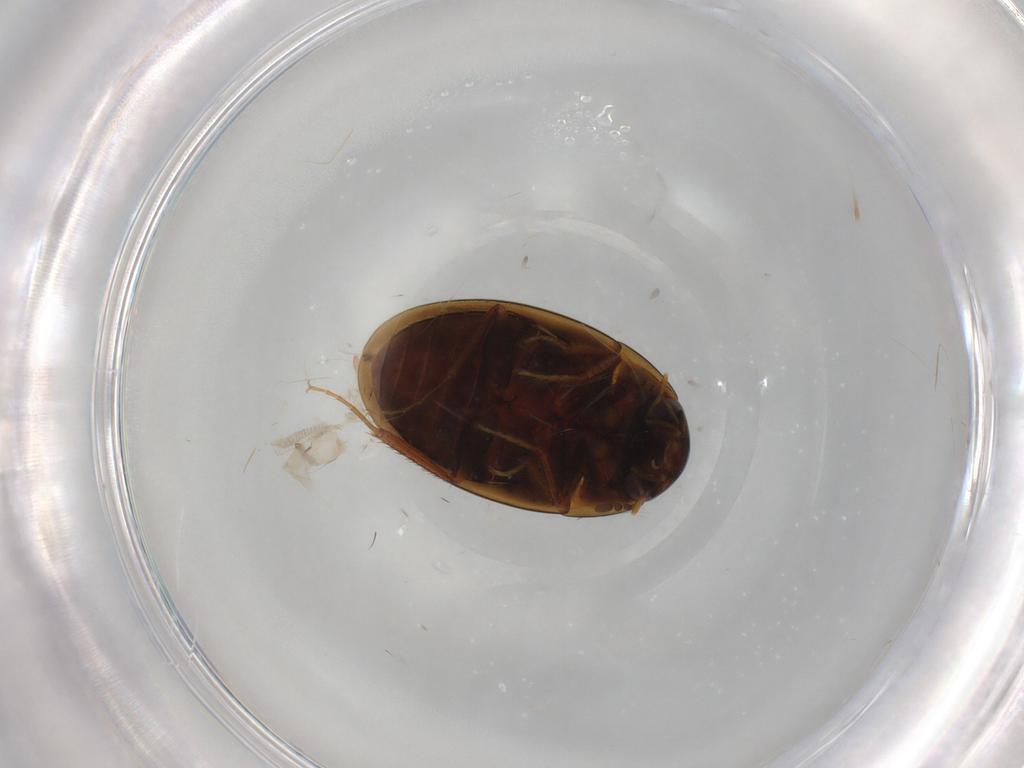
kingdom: Animalia
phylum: Arthropoda
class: Insecta
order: Coleoptera
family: Hydrophilidae
